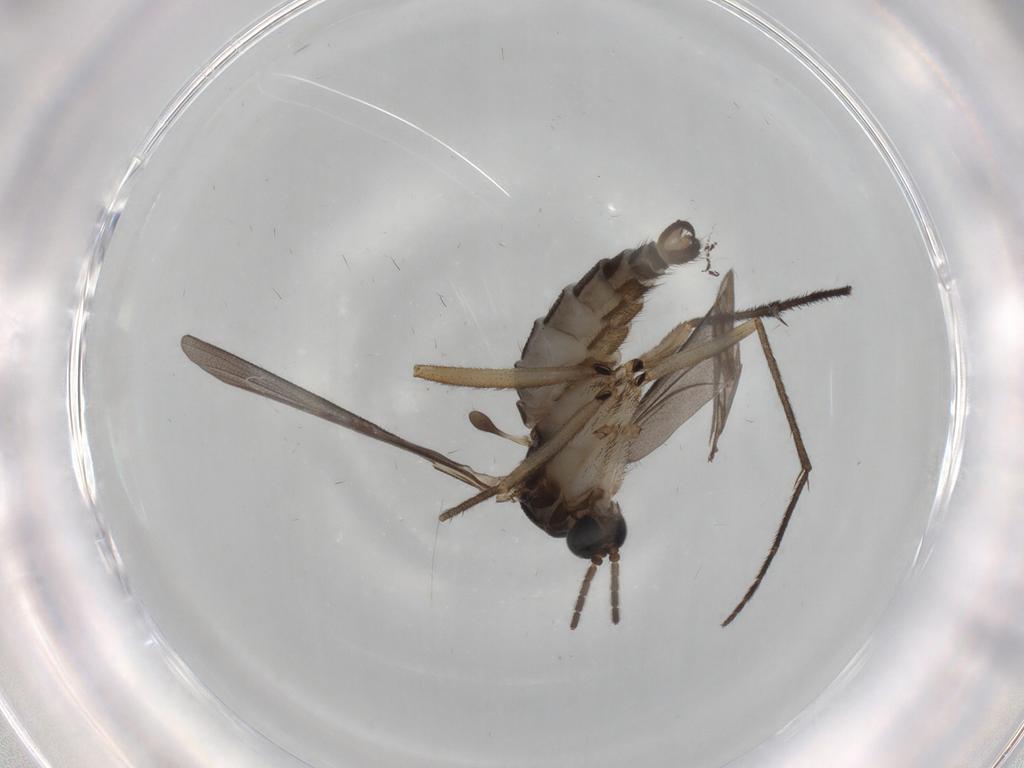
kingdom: Animalia
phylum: Arthropoda
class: Insecta
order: Diptera
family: Sciaridae
